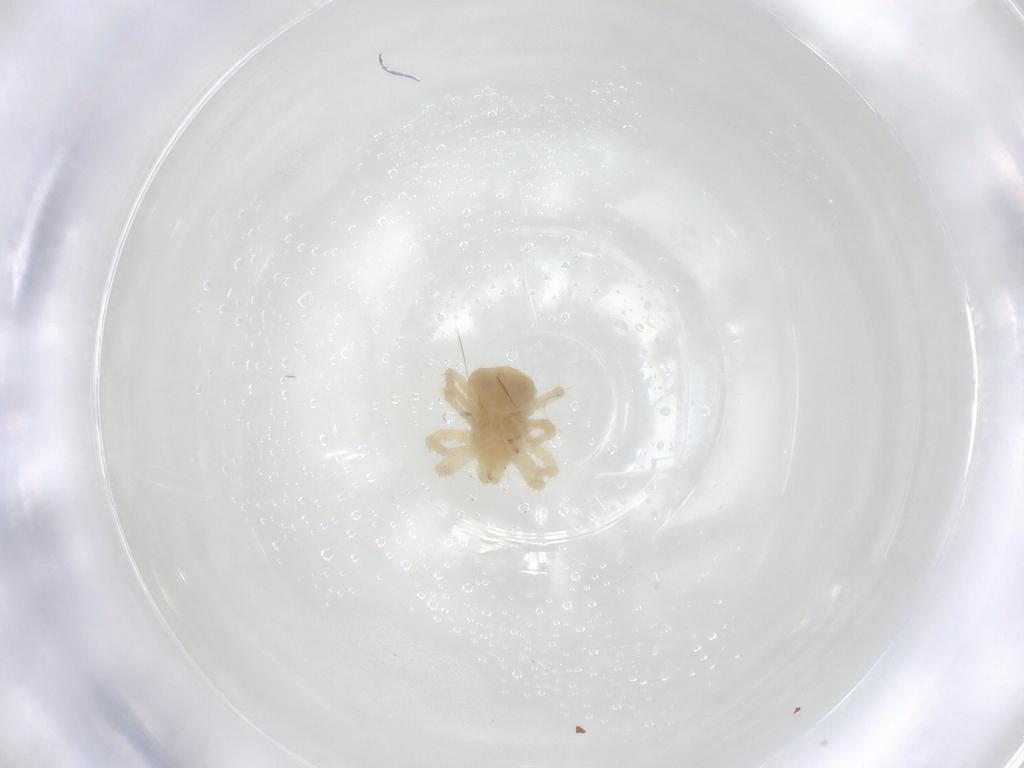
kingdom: Animalia
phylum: Arthropoda
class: Arachnida
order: Trombidiformes
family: Anystidae
